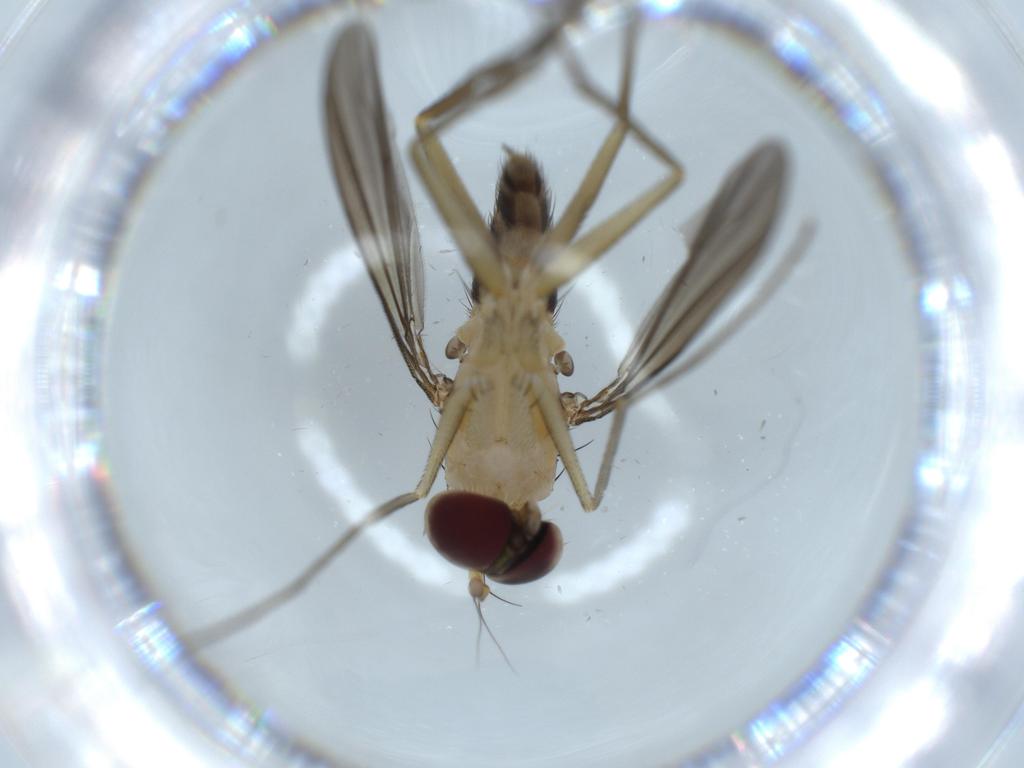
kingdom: Animalia
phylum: Arthropoda
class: Insecta
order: Diptera
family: Dolichopodidae
